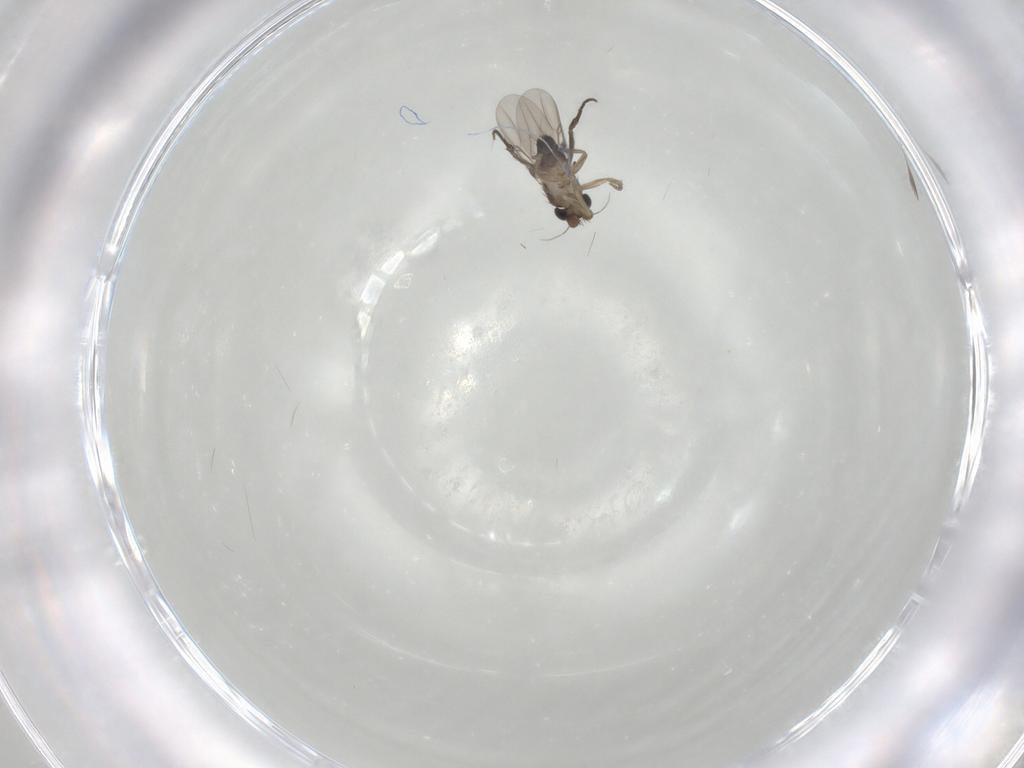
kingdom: Animalia
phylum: Arthropoda
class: Insecta
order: Diptera
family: Phoridae
